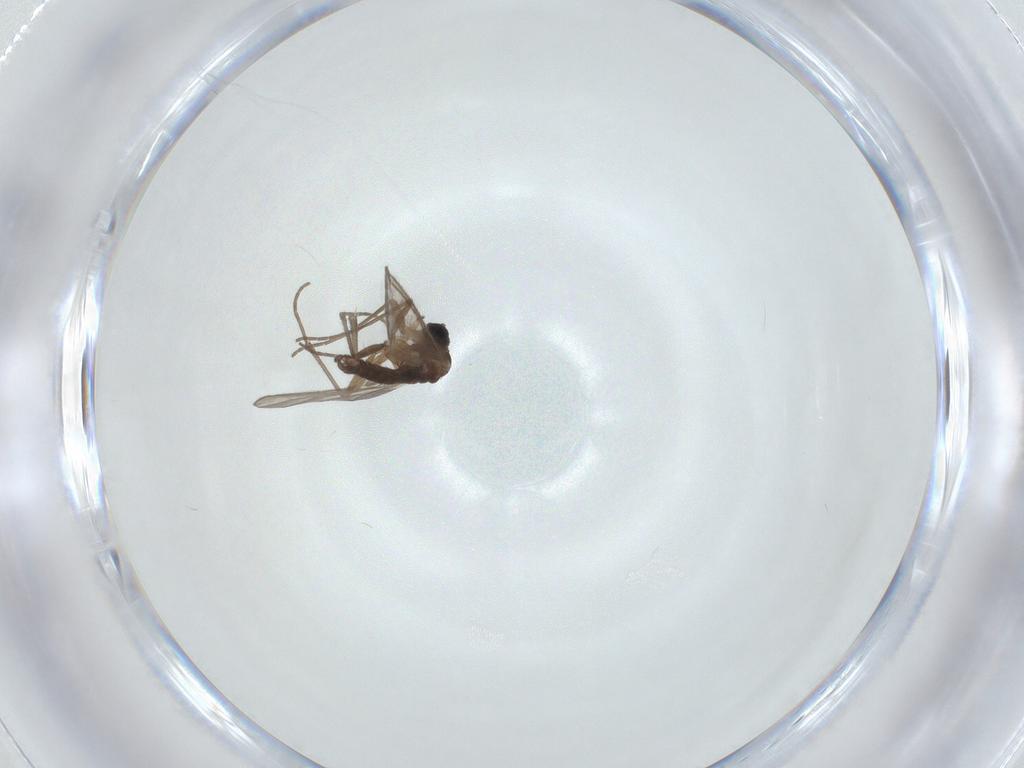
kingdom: Animalia
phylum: Arthropoda
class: Insecta
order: Diptera
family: Sciaridae
